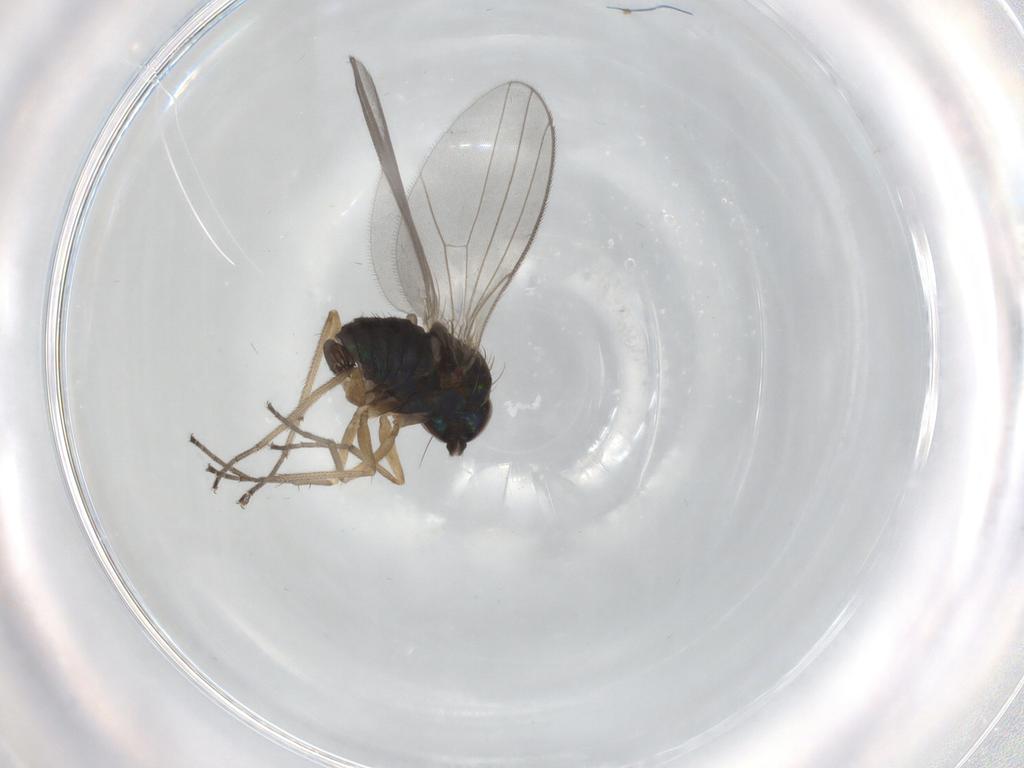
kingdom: Animalia
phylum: Arthropoda
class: Insecta
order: Diptera
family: Dolichopodidae
